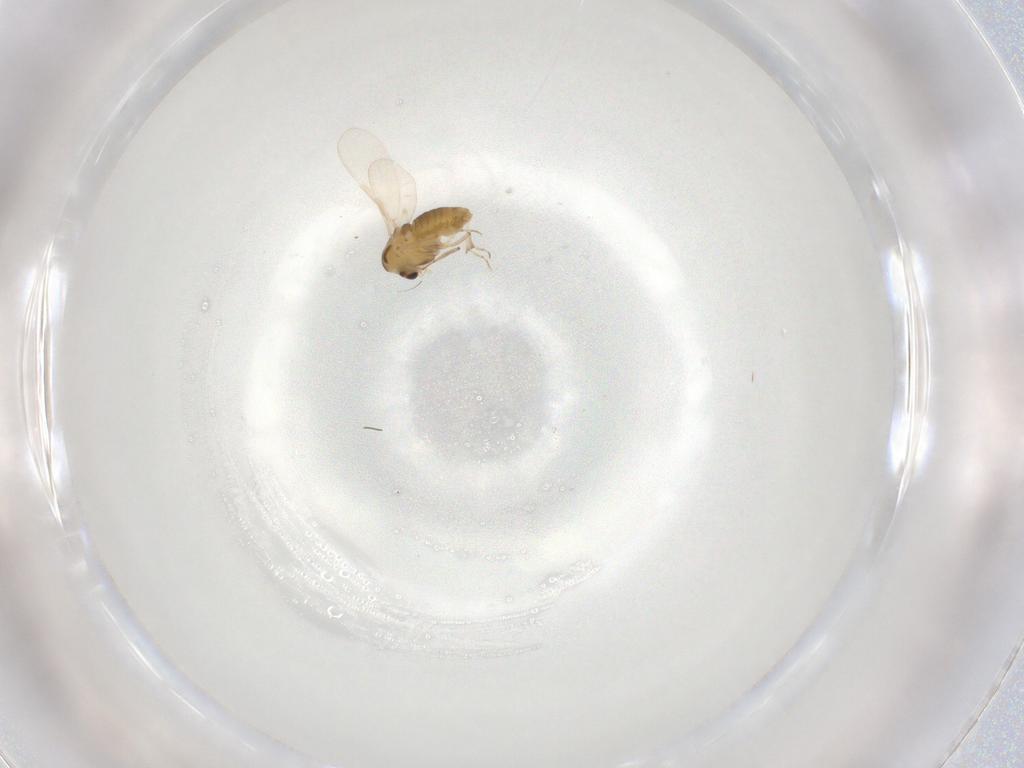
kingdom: Animalia
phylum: Arthropoda
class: Insecta
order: Diptera
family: Chironomidae
